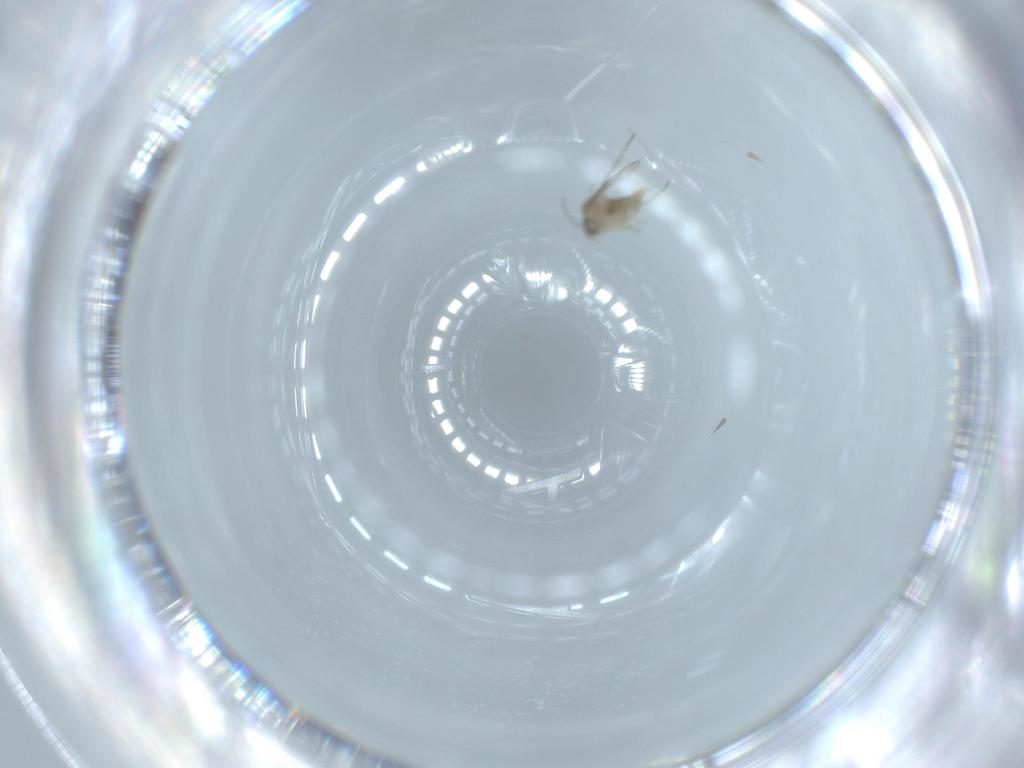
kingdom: Animalia
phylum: Arthropoda
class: Insecta
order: Diptera
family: Cecidomyiidae
